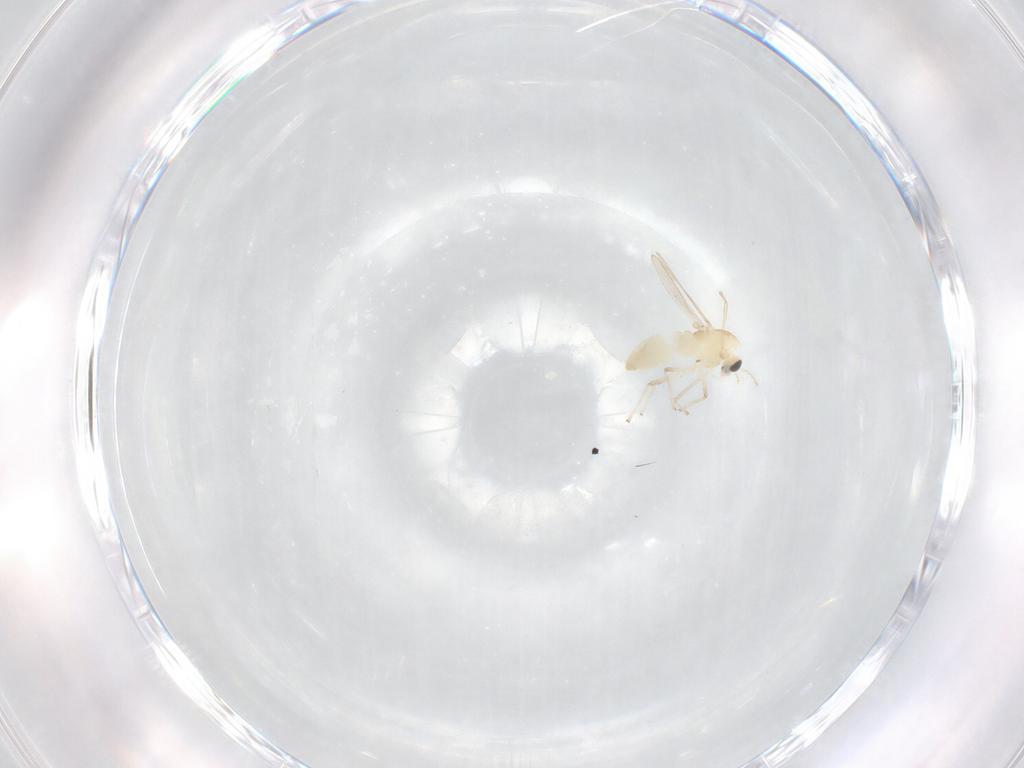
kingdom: Animalia
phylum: Arthropoda
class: Insecta
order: Diptera
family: Chironomidae
